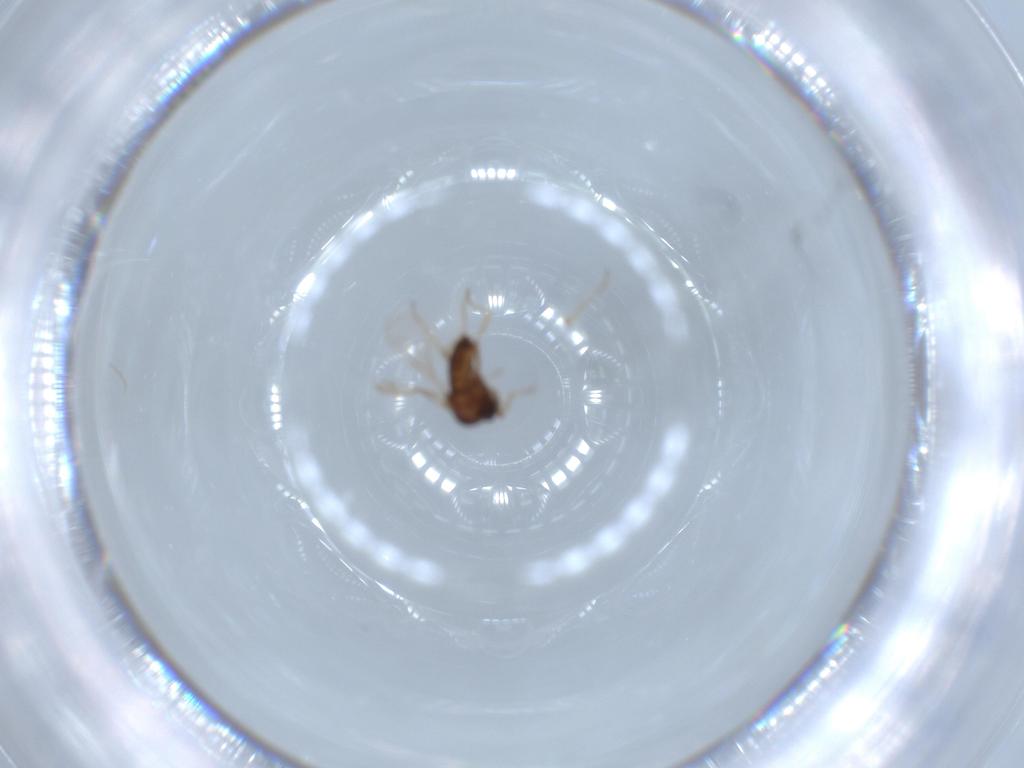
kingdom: Animalia
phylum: Arthropoda
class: Insecta
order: Diptera
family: Ceratopogonidae
